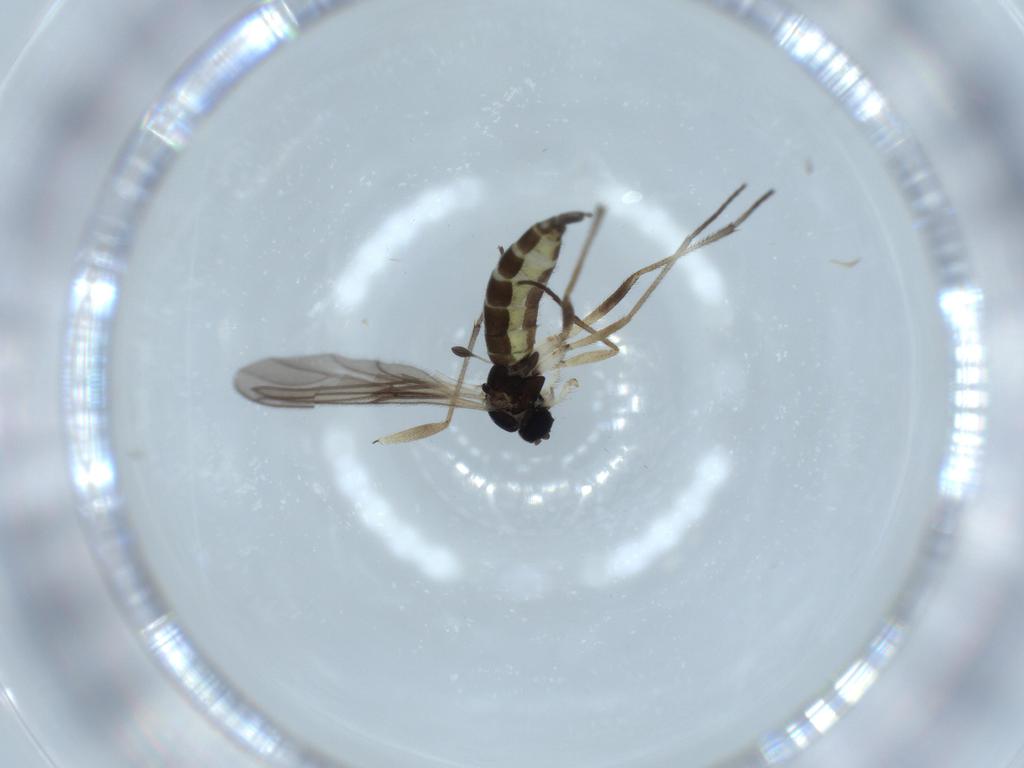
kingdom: Animalia
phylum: Arthropoda
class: Insecta
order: Diptera
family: Sciaridae
